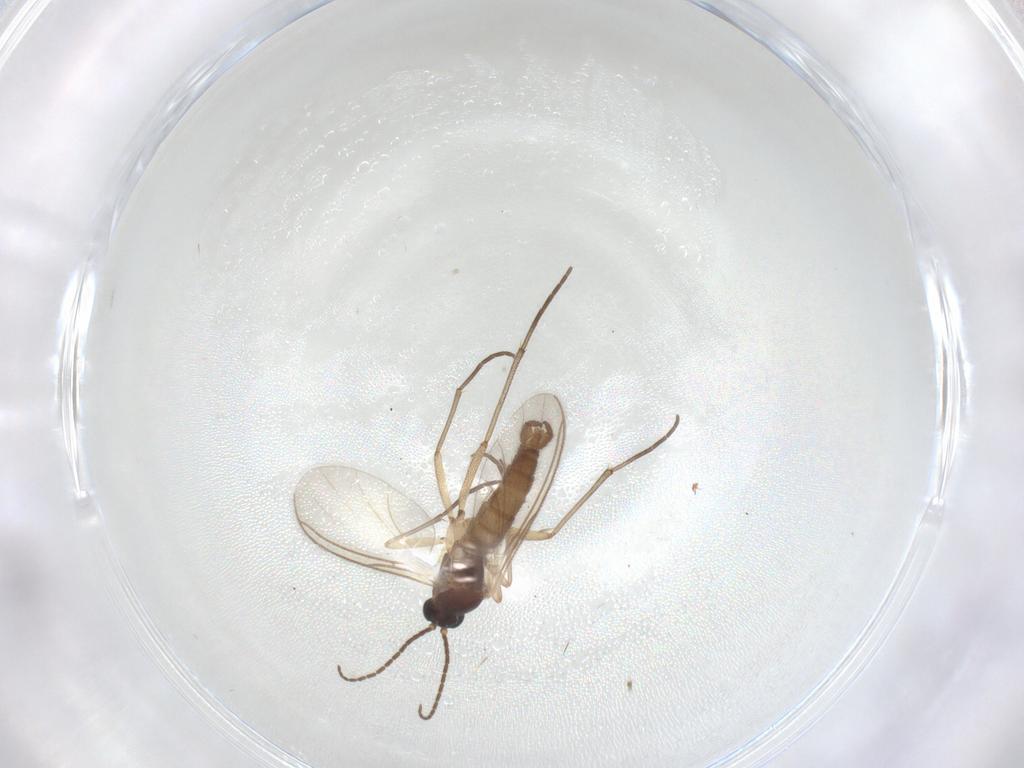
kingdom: Animalia
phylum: Arthropoda
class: Insecta
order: Diptera
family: Sciaridae
